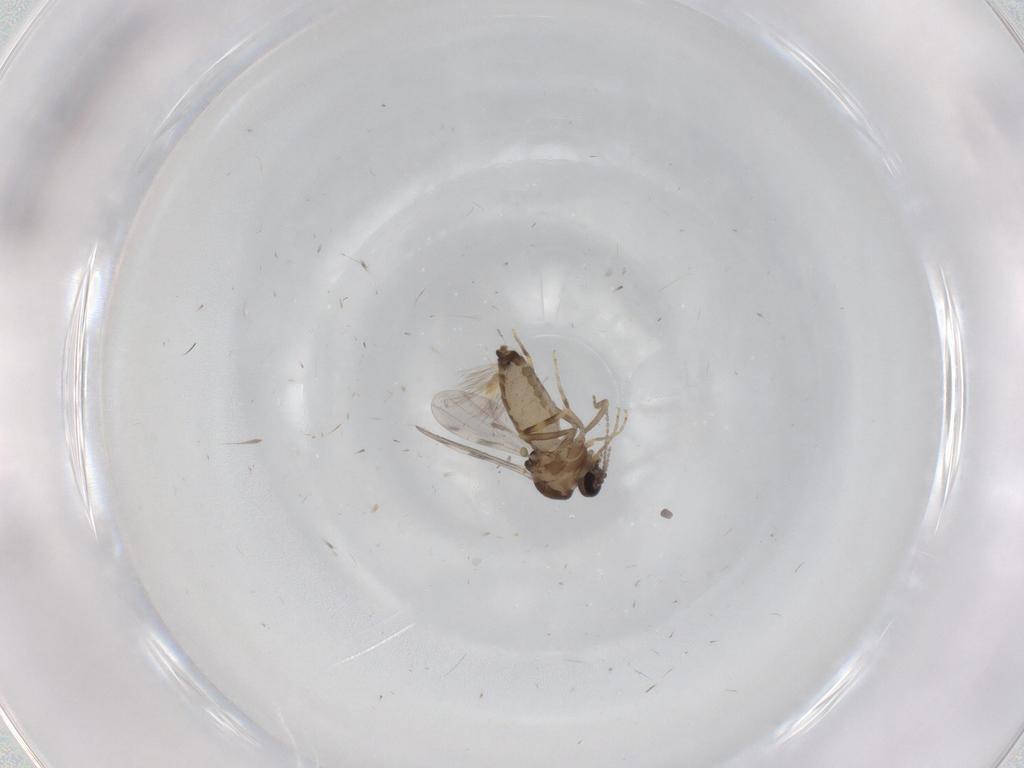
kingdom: Animalia
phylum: Arthropoda
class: Insecta
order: Diptera
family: Ceratopogonidae
